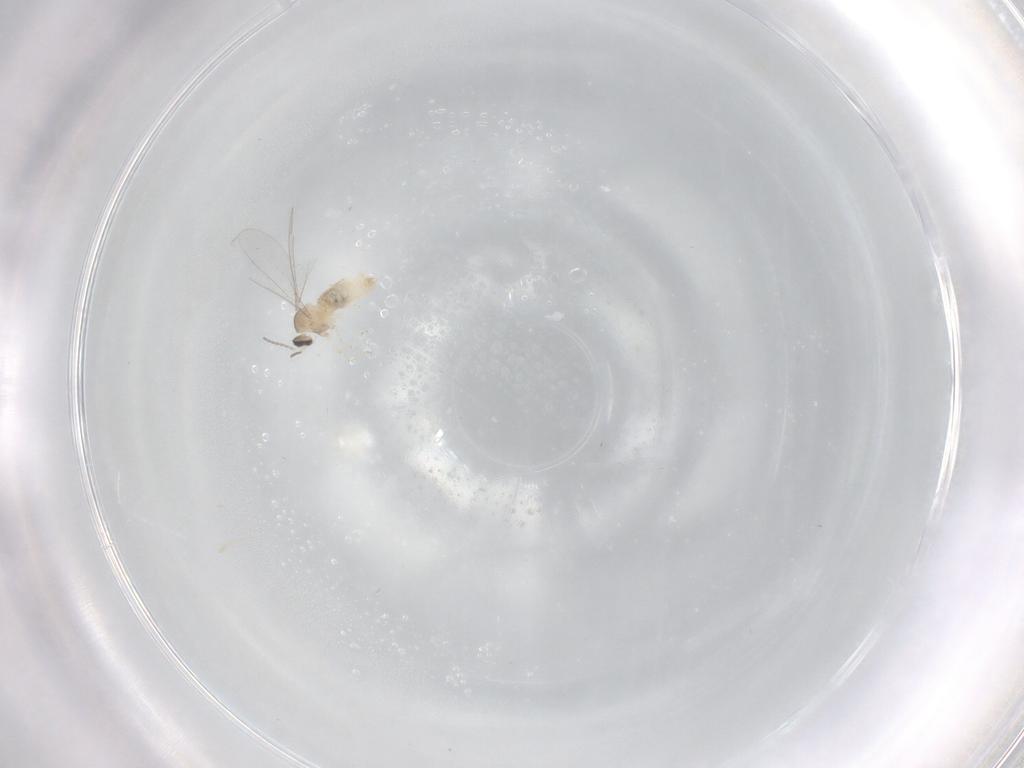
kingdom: Animalia
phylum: Arthropoda
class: Insecta
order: Diptera
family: Cecidomyiidae
